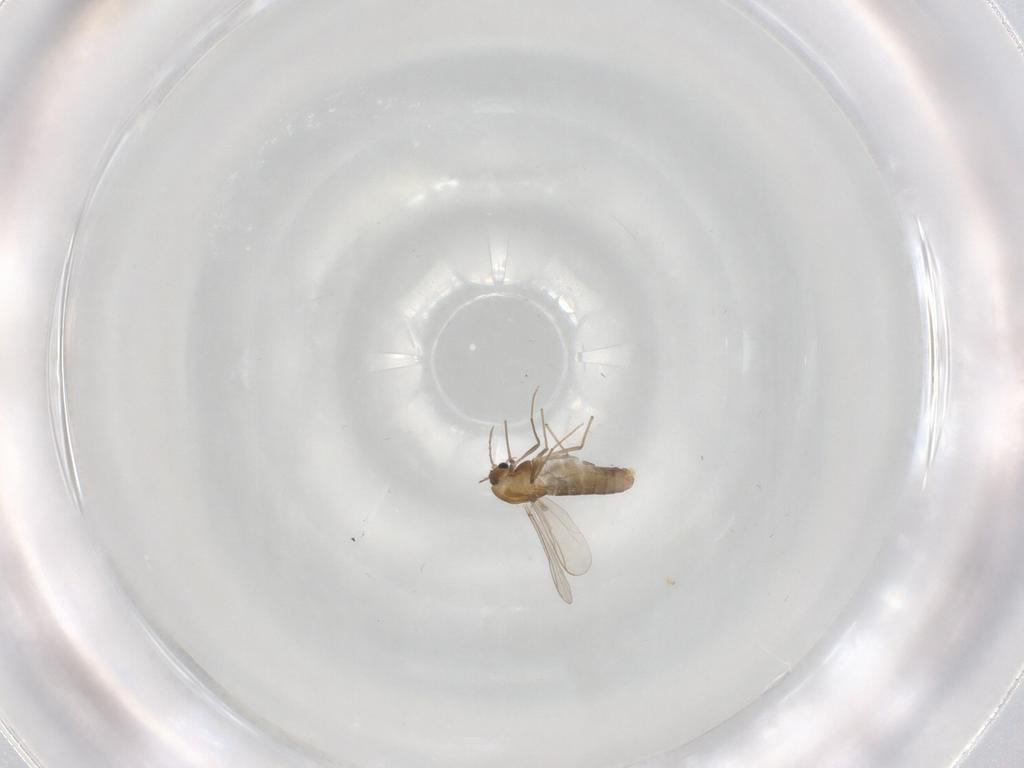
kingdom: Animalia
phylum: Arthropoda
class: Insecta
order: Diptera
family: Chironomidae
